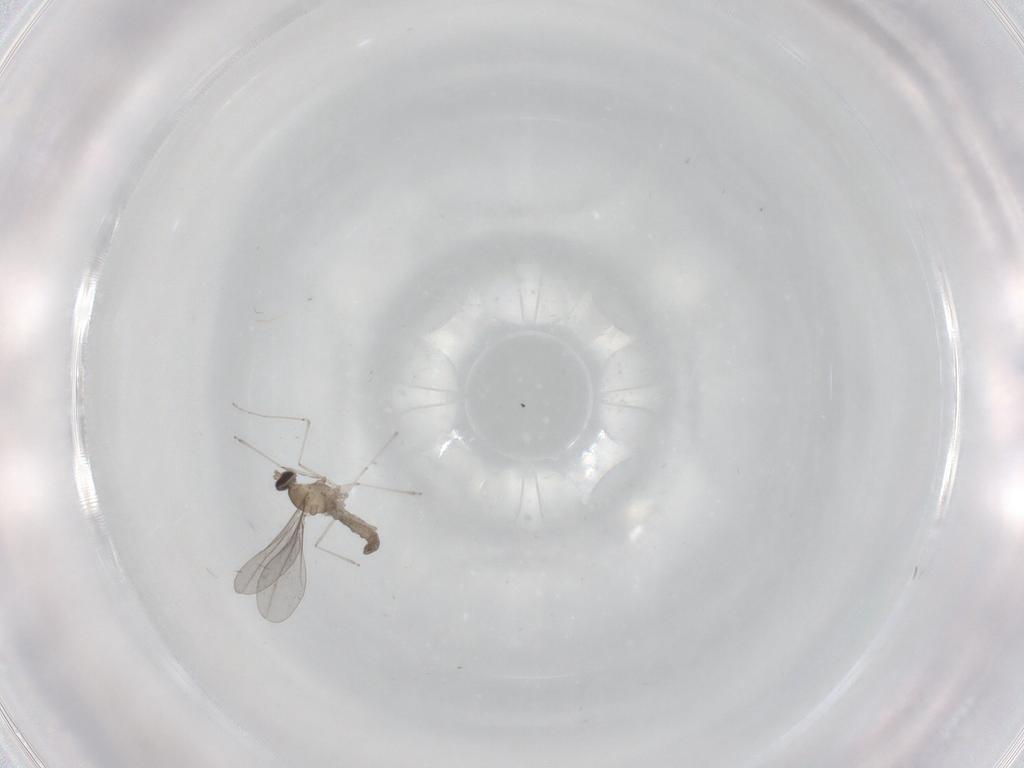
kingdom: Animalia
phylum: Arthropoda
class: Insecta
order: Diptera
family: Cecidomyiidae
